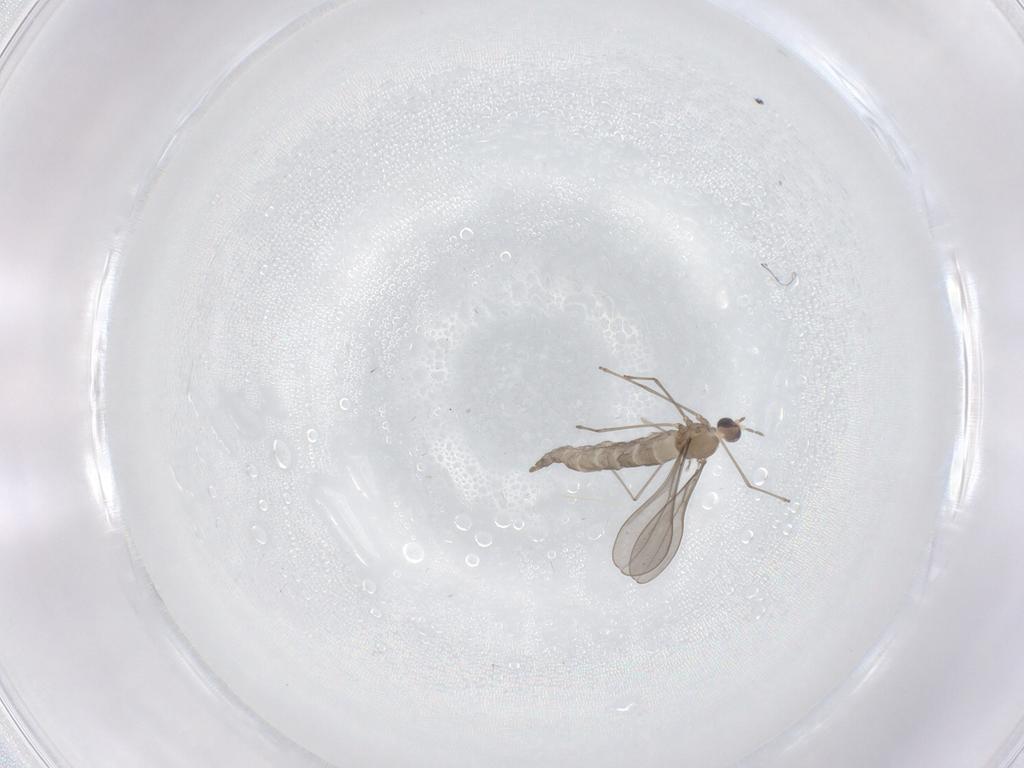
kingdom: Animalia
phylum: Arthropoda
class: Insecta
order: Diptera
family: Cecidomyiidae
